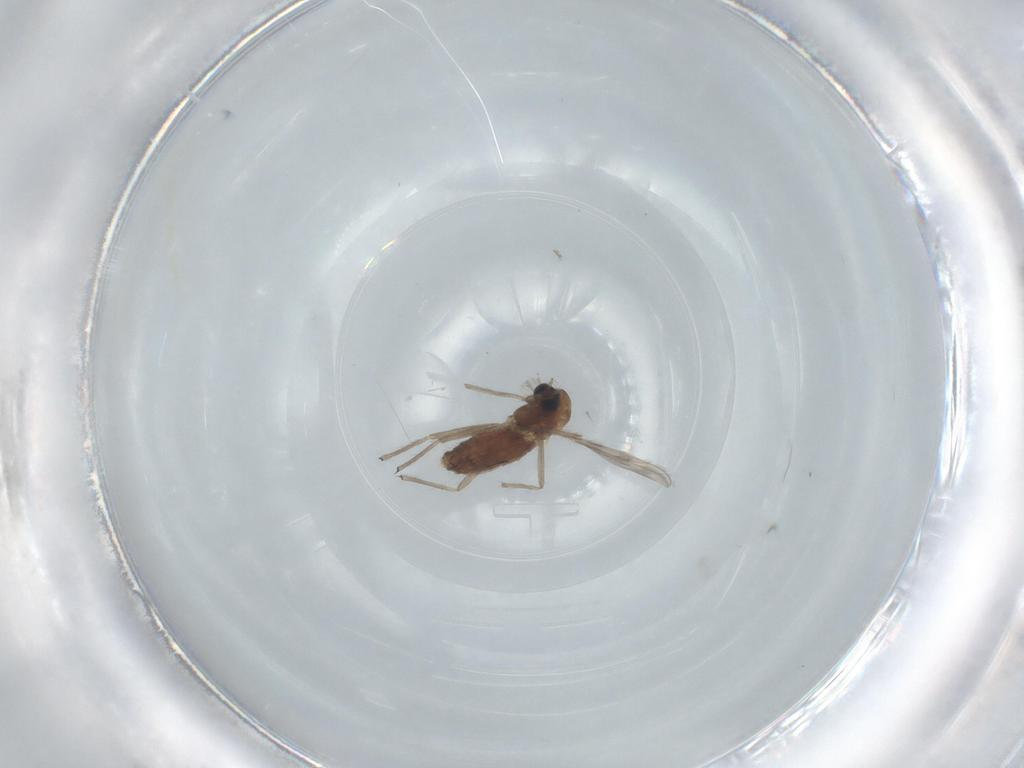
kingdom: Animalia
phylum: Arthropoda
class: Insecta
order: Diptera
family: Chironomidae
